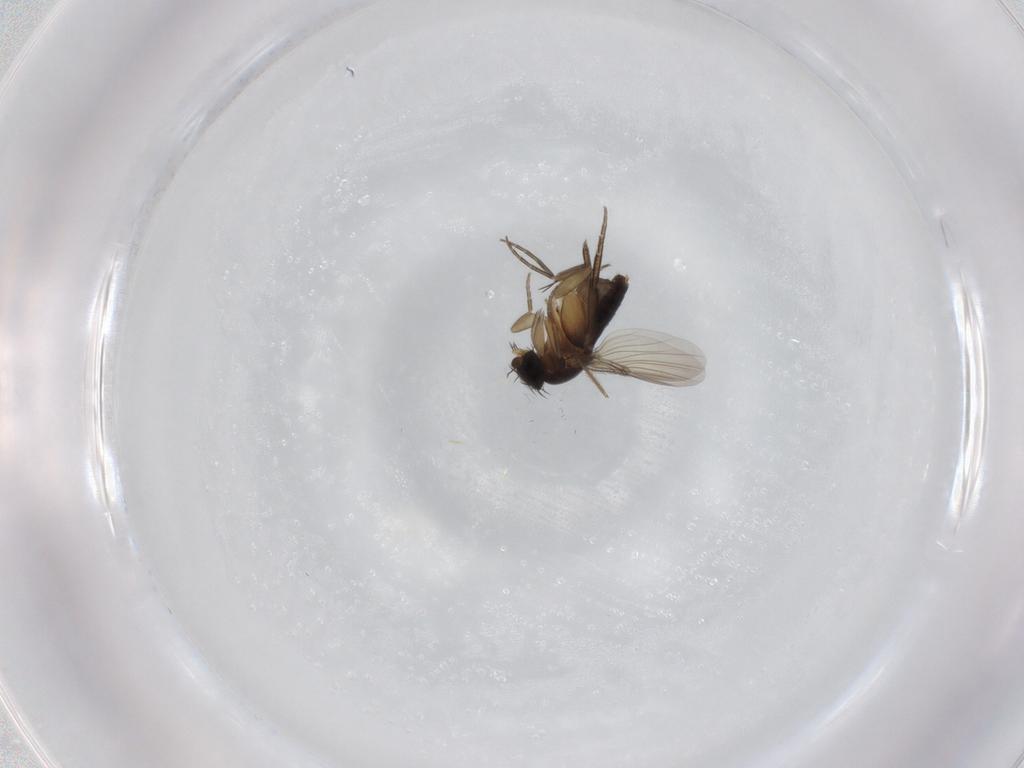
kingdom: Animalia
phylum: Arthropoda
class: Insecta
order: Diptera
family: Phoridae
